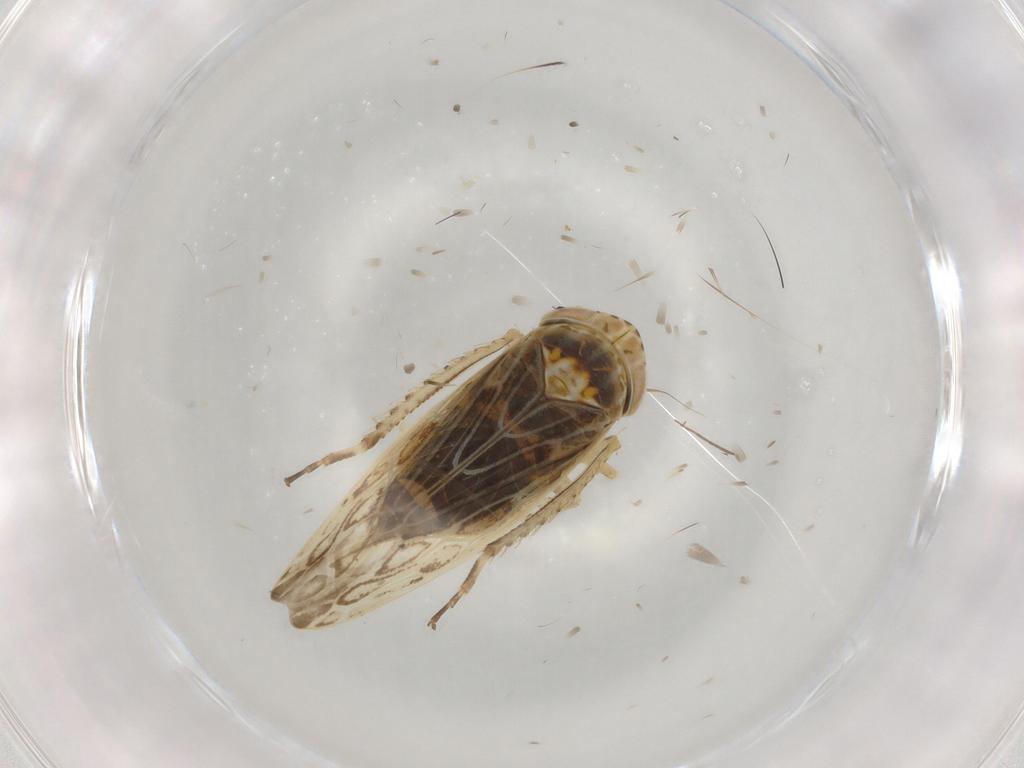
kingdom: Animalia
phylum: Arthropoda
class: Insecta
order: Hemiptera
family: Cicadellidae
